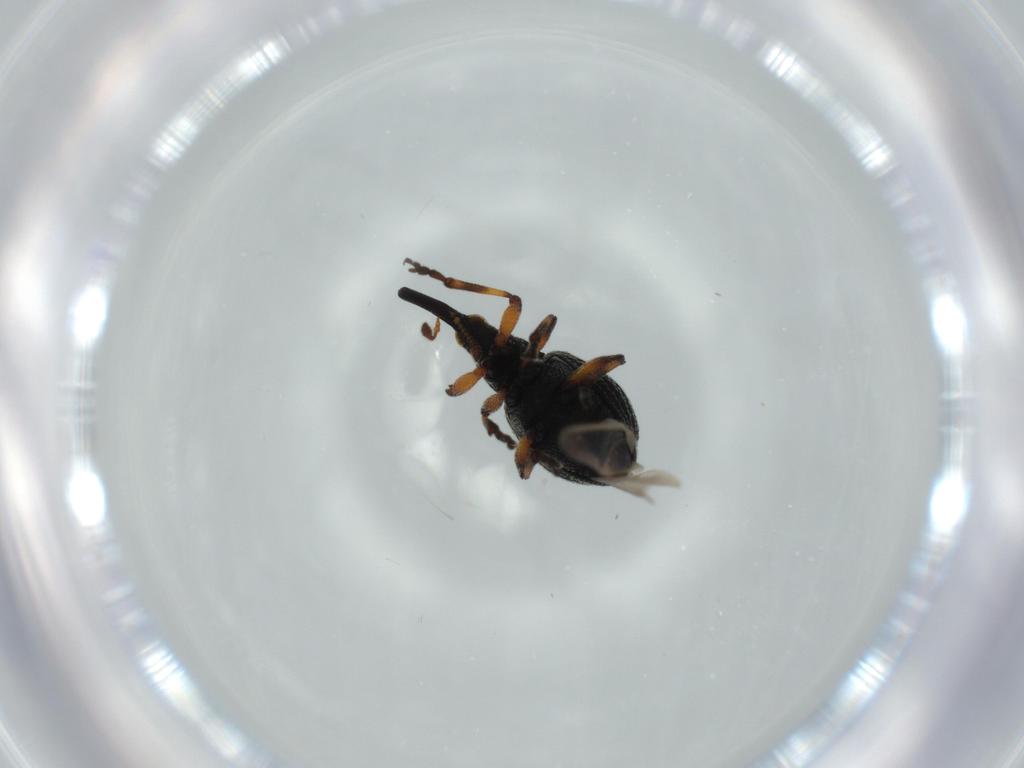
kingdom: Animalia
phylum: Arthropoda
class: Insecta
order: Coleoptera
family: Brentidae
